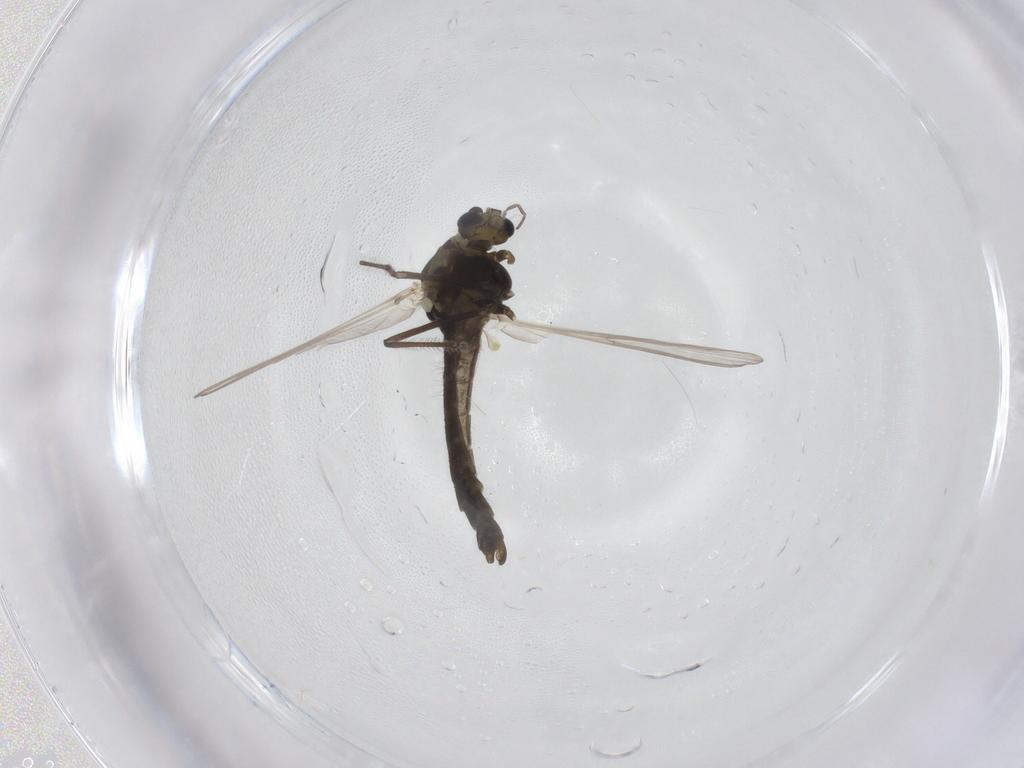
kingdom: Animalia
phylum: Arthropoda
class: Insecta
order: Diptera
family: Chironomidae
